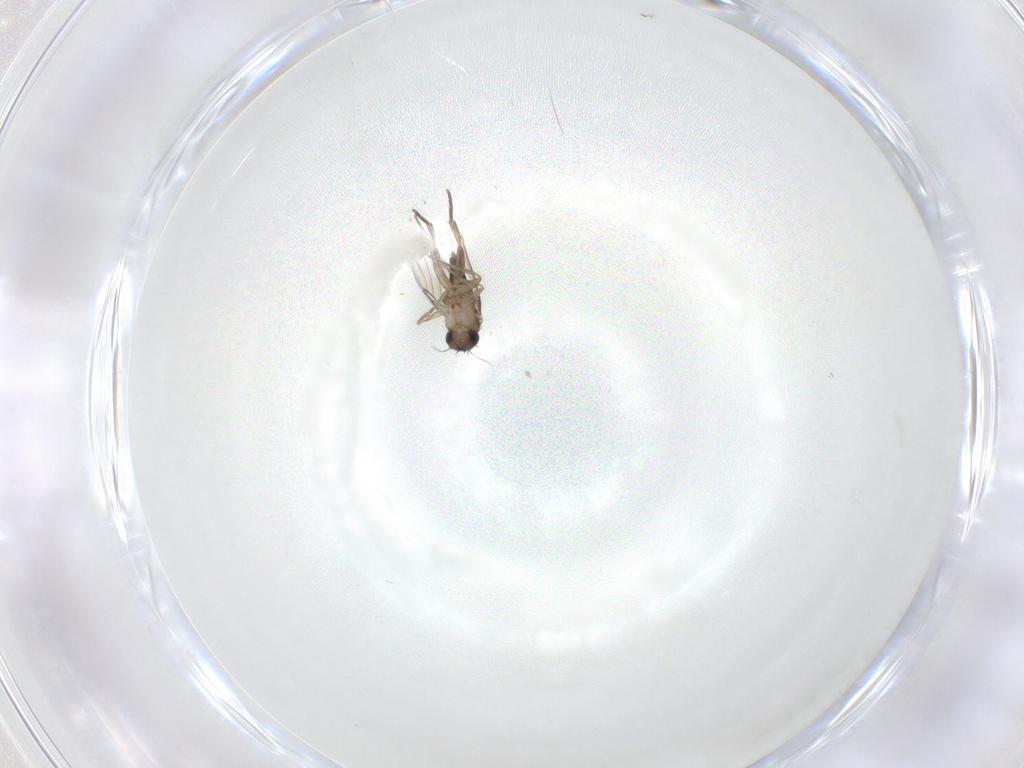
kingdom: Animalia
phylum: Arthropoda
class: Insecta
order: Diptera
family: Phoridae
